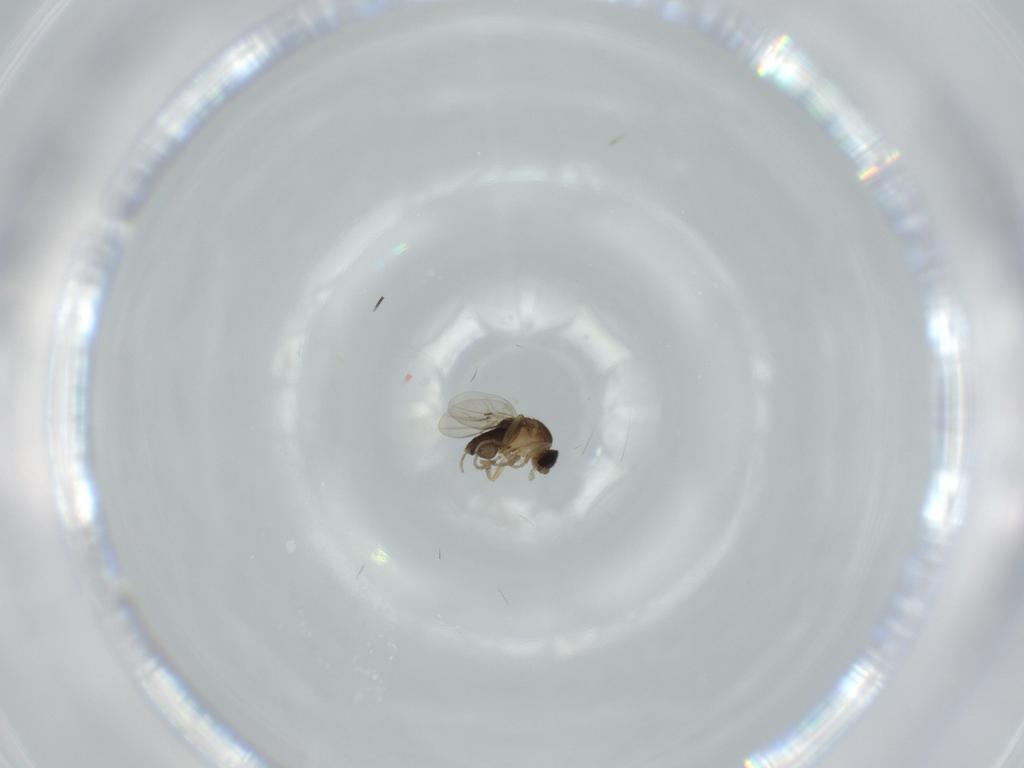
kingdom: Animalia
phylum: Arthropoda
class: Insecta
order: Diptera
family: Phoridae
